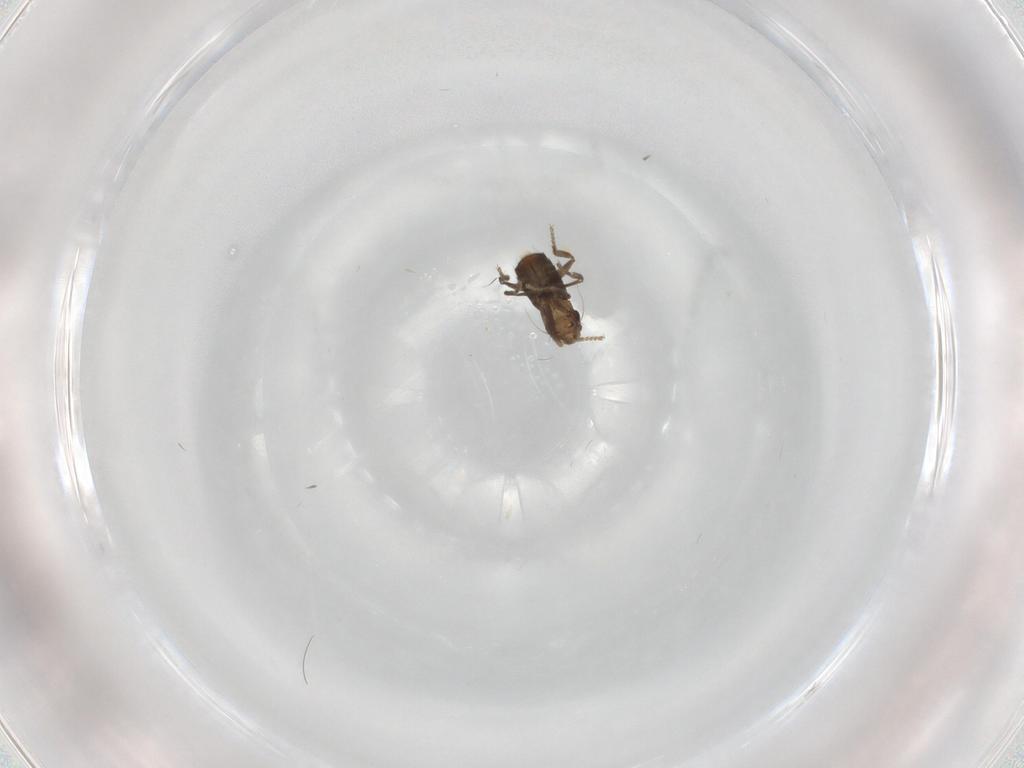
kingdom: Animalia
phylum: Arthropoda
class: Insecta
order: Diptera
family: Phoridae
